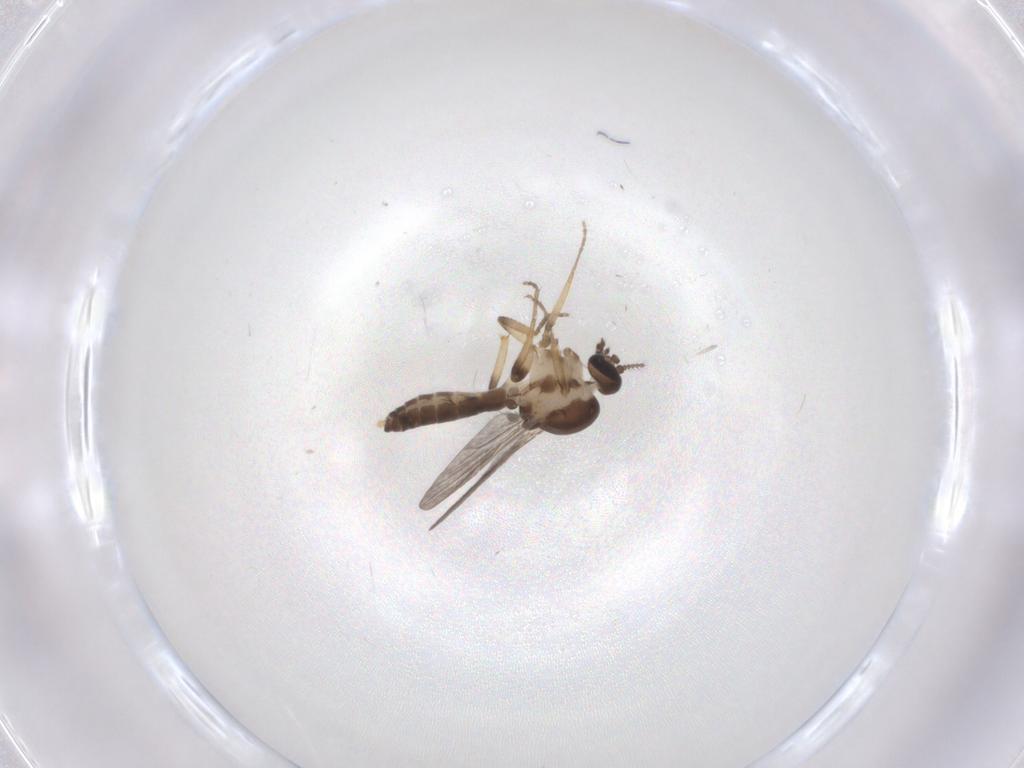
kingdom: Animalia
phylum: Arthropoda
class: Insecta
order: Diptera
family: Ceratopogonidae
